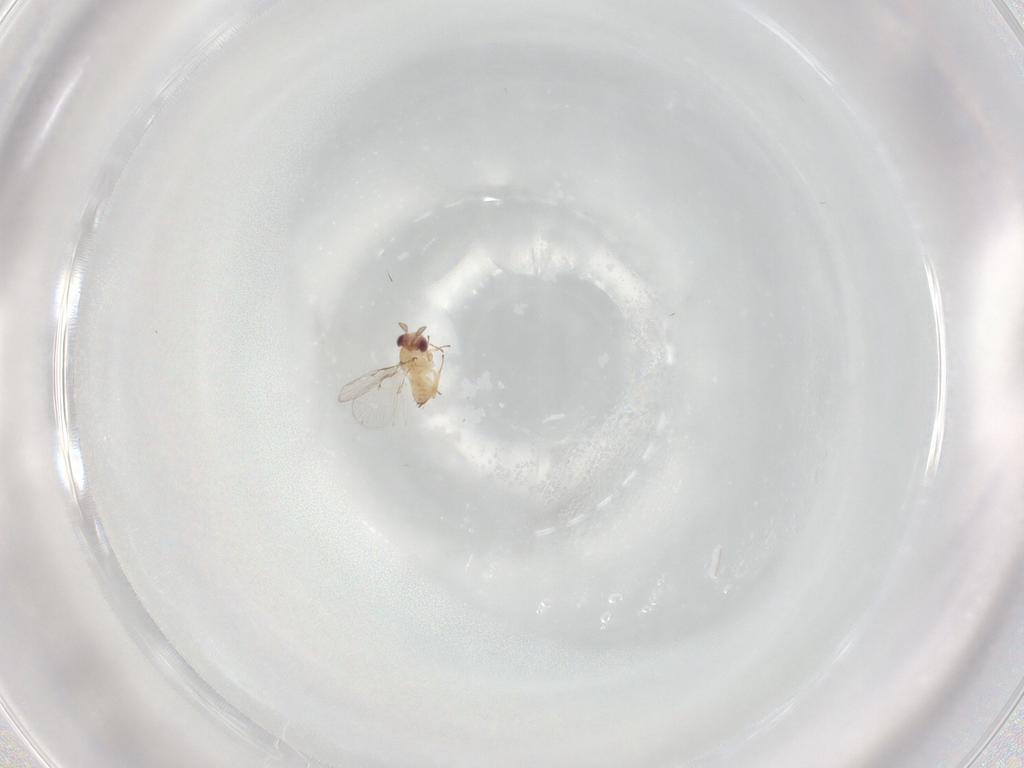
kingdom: Animalia
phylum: Arthropoda
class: Insecta
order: Hymenoptera
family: Trichogrammatidae
